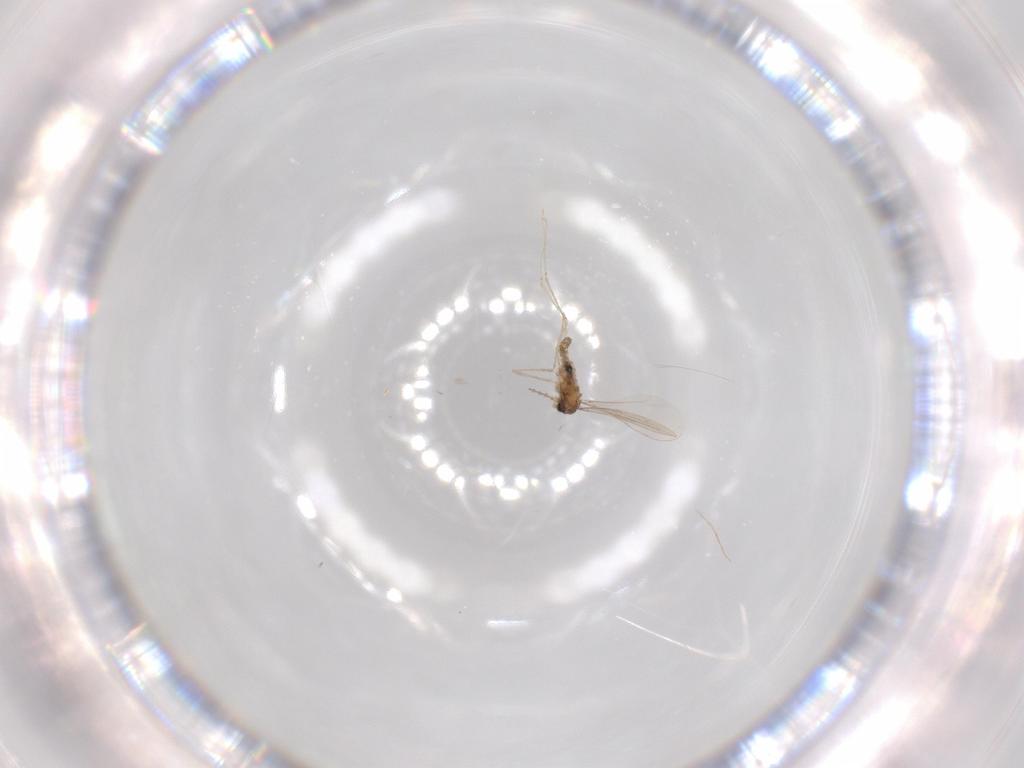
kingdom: Animalia
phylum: Arthropoda
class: Insecta
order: Diptera
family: Cecidomyiidae
